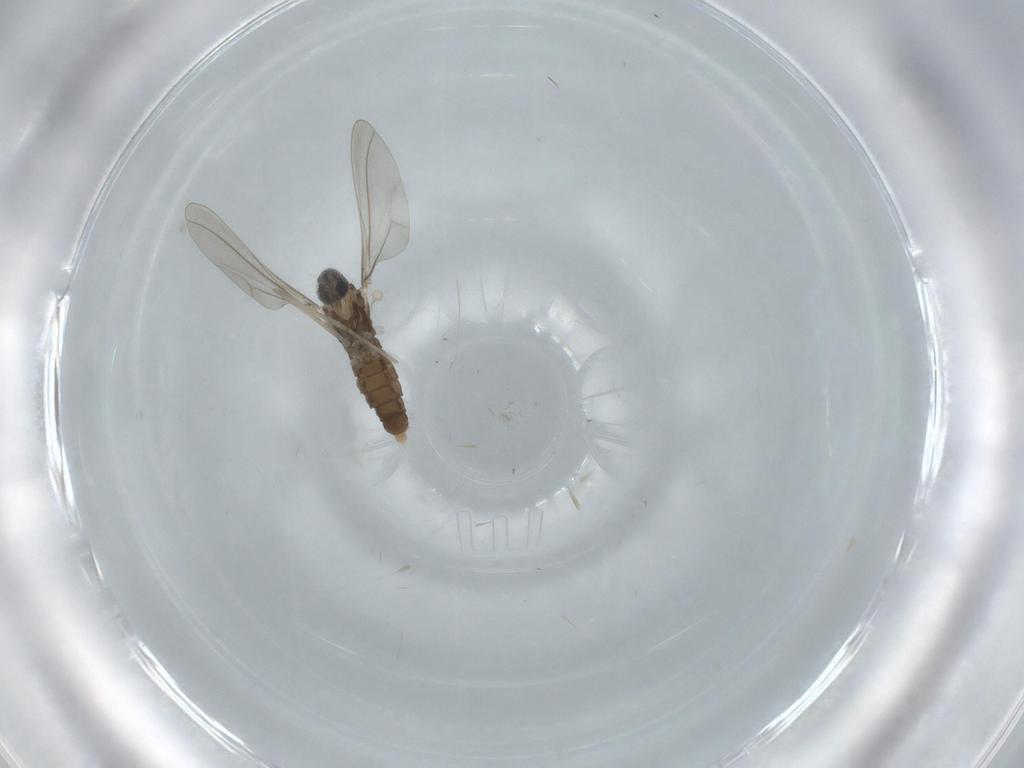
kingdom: Animalia
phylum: Arthropoda
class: Insecta
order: Diptera
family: Cecidomyiidae
